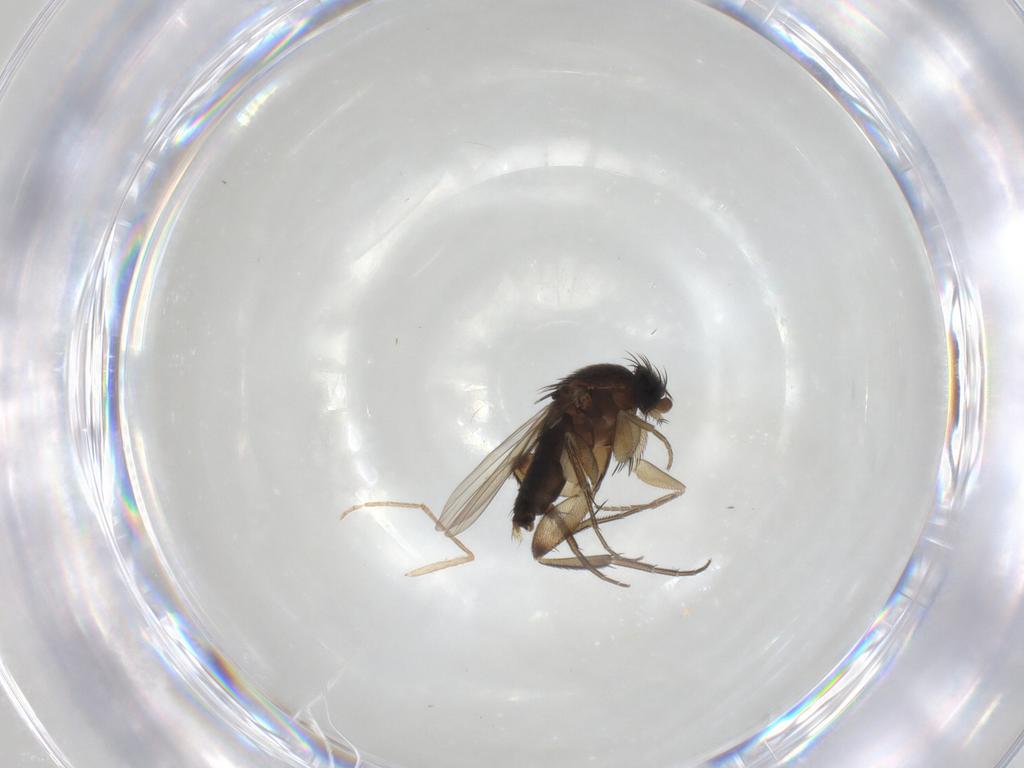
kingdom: Animalia
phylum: Arthropoda
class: Insecta
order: Diptera
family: Phoridae
